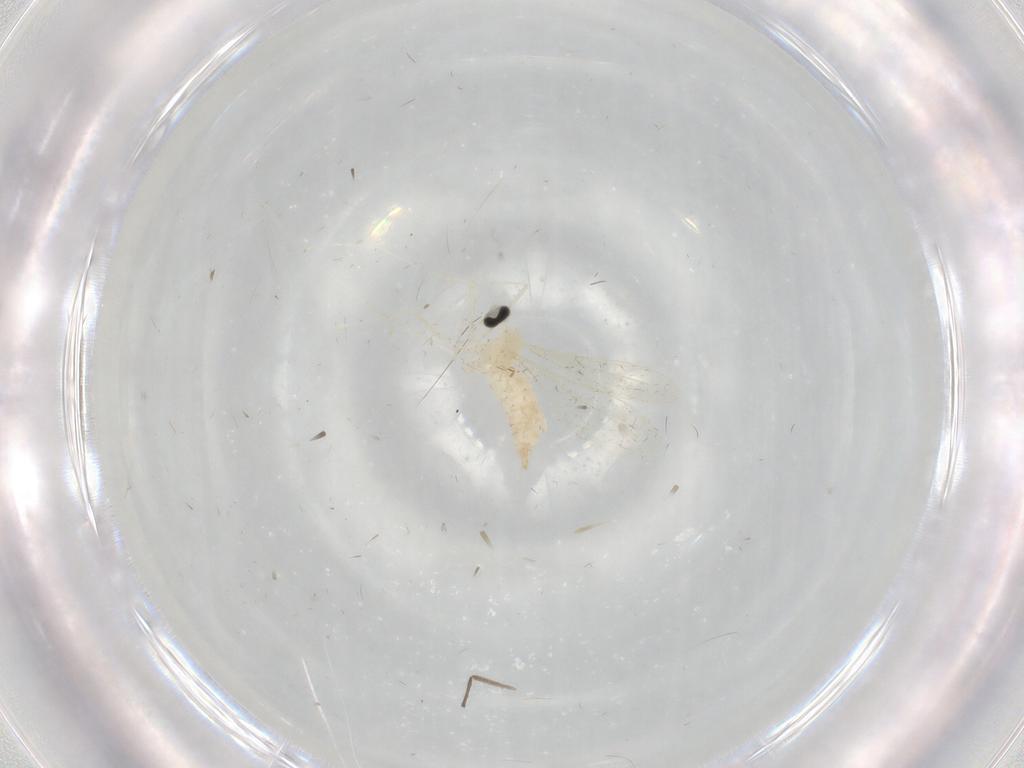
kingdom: Animalia
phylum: Arthropoda
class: Insecta
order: Diptera
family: Cecidomyiidae
